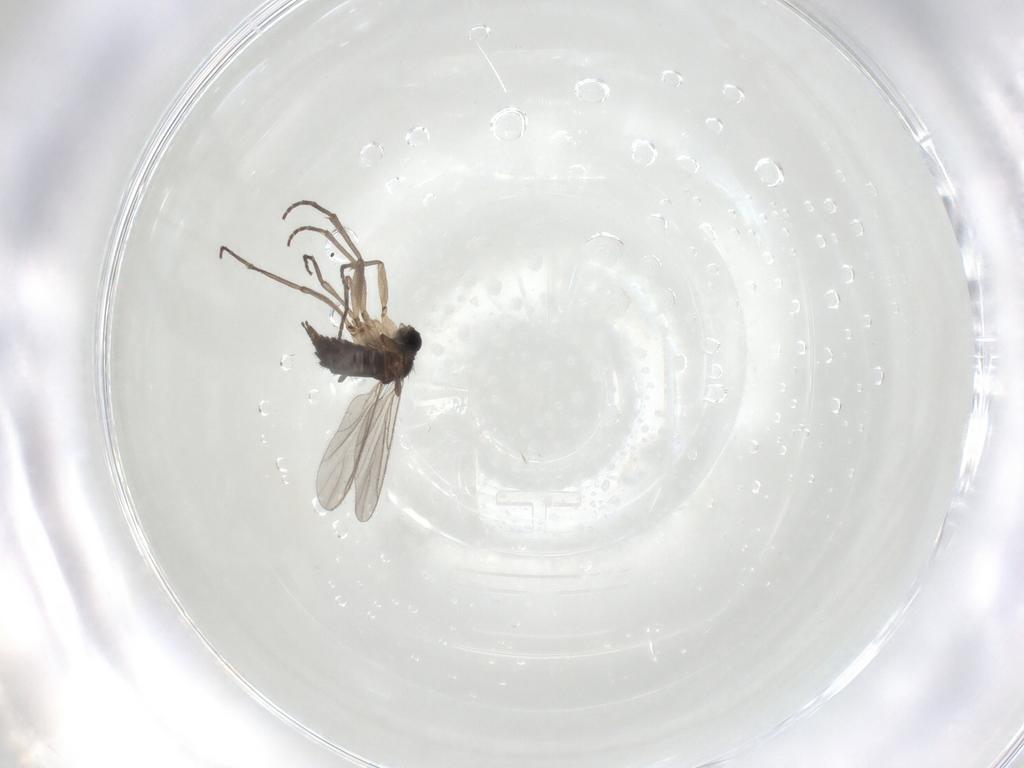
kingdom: Animalia
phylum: Arthropoda
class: Insecta
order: Diptera
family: Sciaridae
